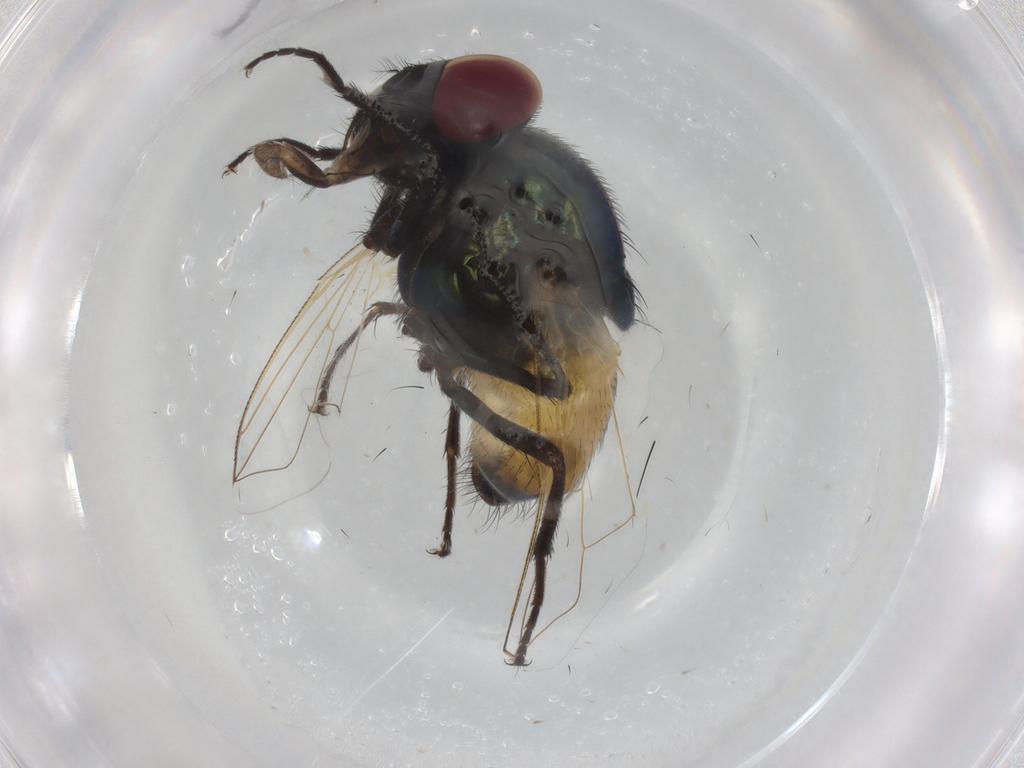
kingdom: Animalia
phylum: Arthropoda
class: Insecta
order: Diptera
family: Muscidae
